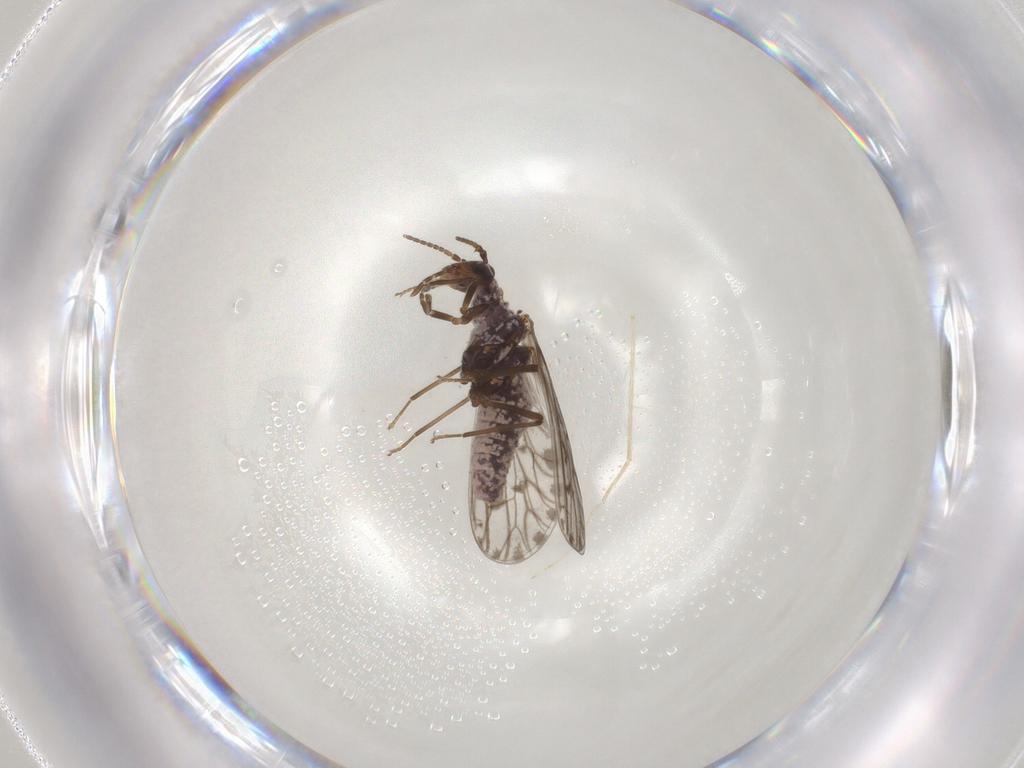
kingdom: Animalia
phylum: Arthropoda
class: Insecta
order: Neuroptera
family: Coniopterygidae
